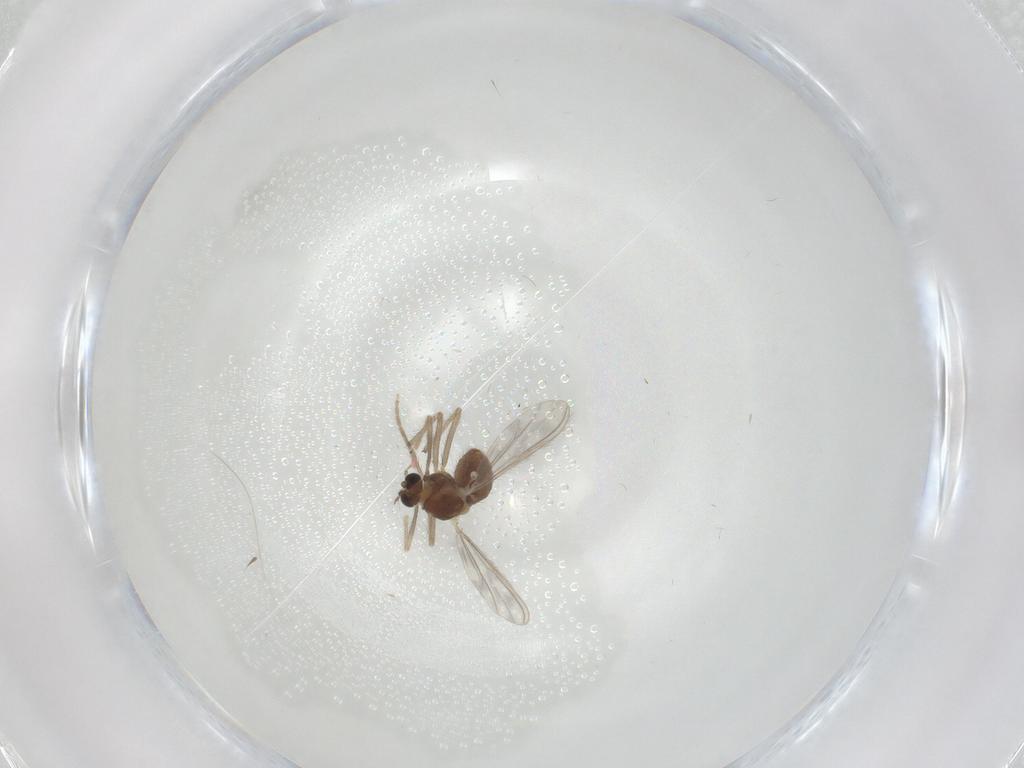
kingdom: Animalia
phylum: Arthropoda
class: Insecta
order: Diptera
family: Chironomidae
